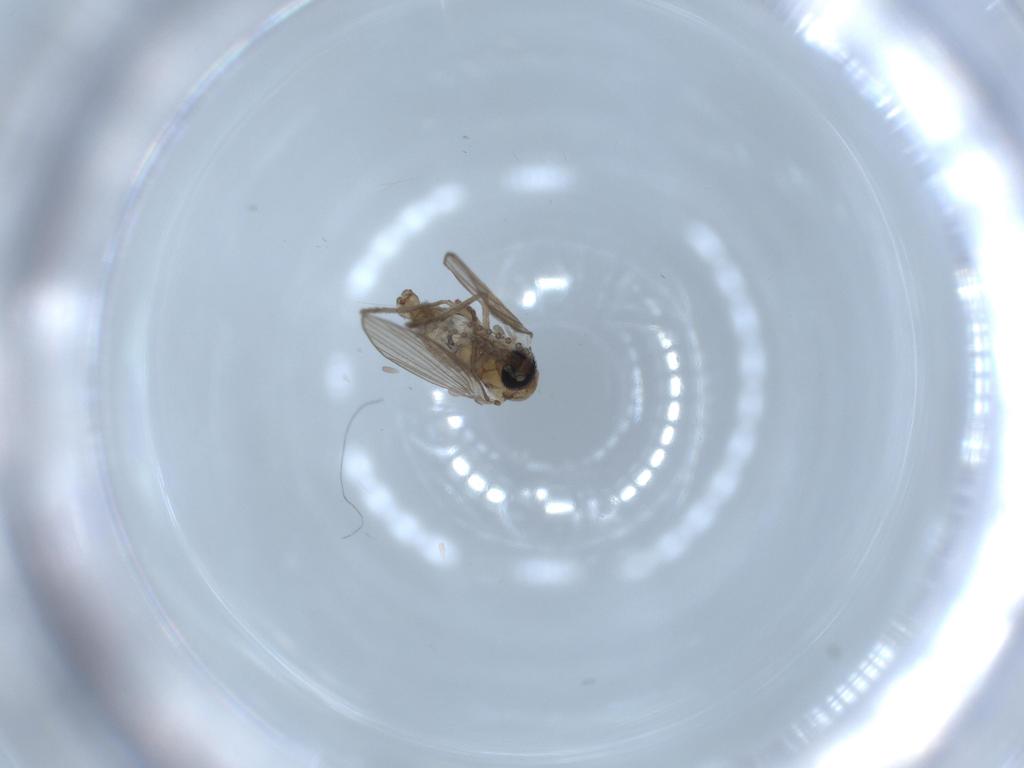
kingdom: Animalia
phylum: Arthropoda
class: Insecta
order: Diptera
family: Psychodidae
